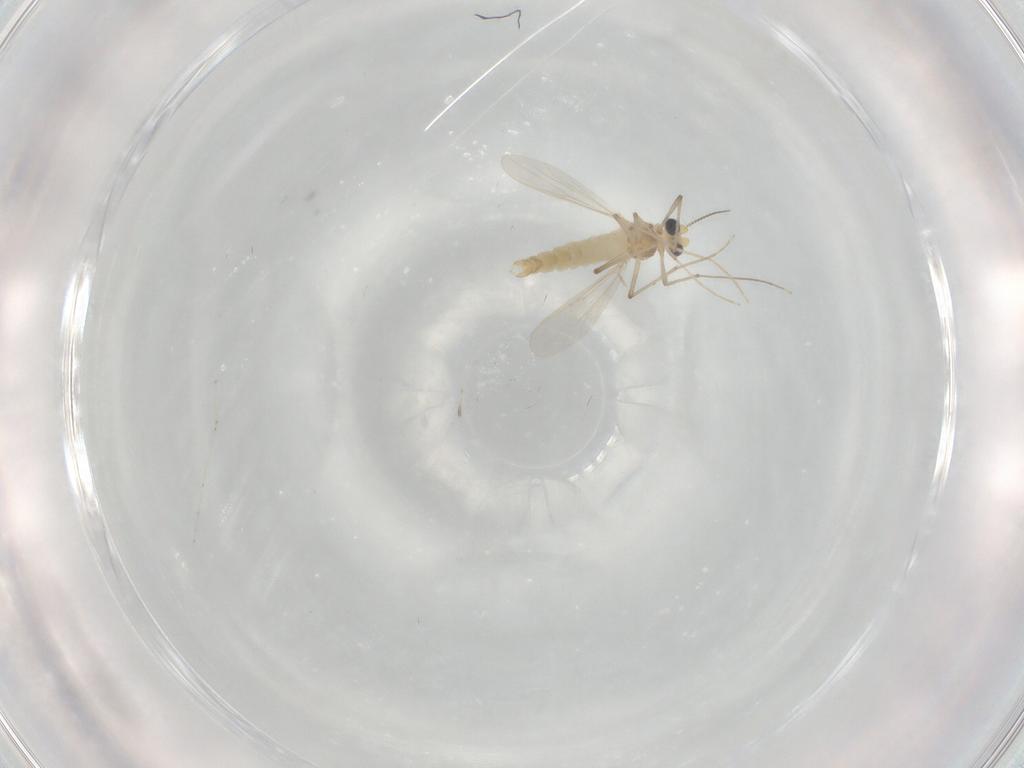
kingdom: Animalia
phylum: Arthropoda
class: Insecta
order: Diptera
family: Chironomidae
